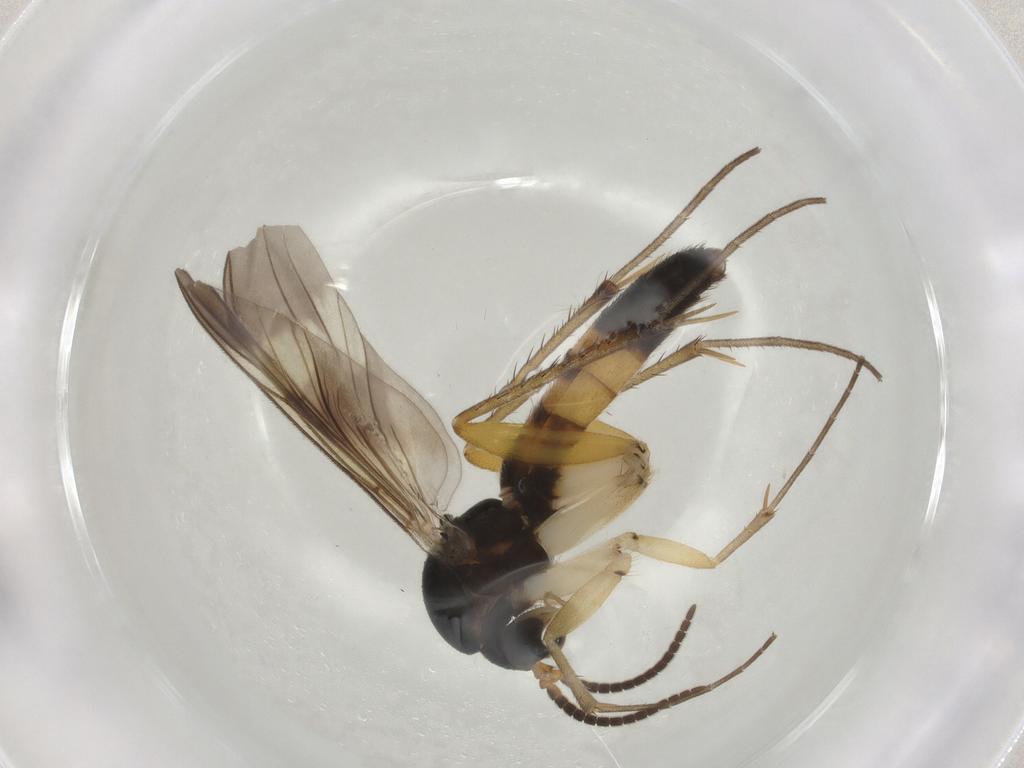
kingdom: Animalia
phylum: Arthropoda
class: Insecta
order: Diptera
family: Mycetophilidae
